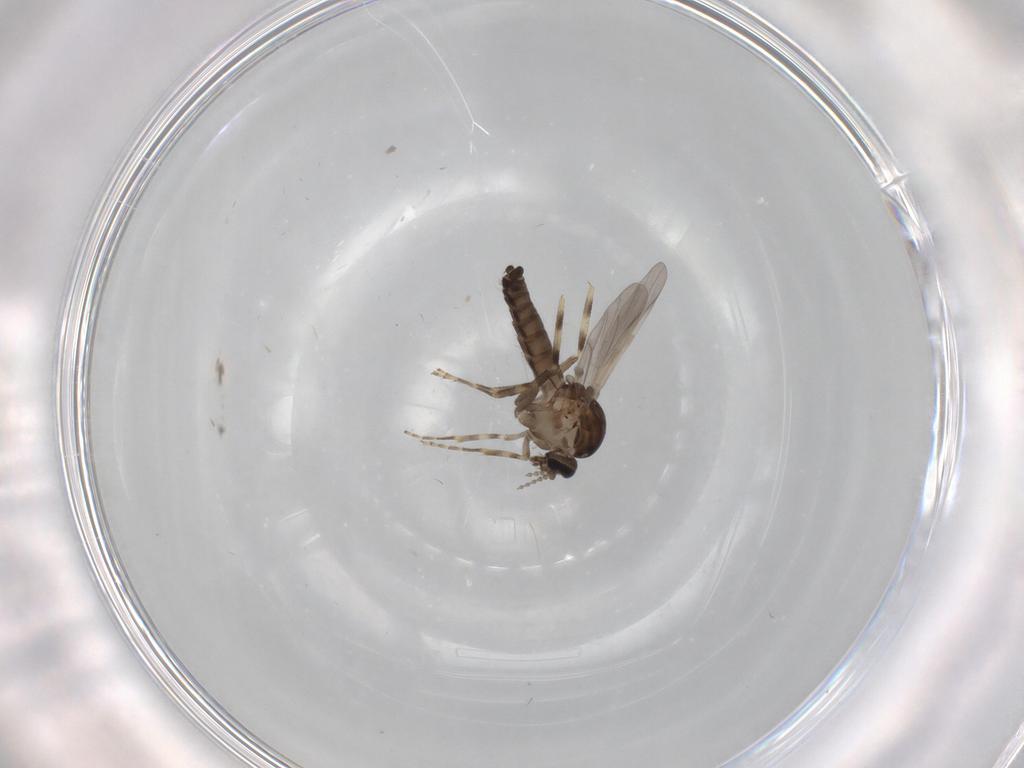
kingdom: Animalia
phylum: Arthropoda
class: Insecta
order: Diptera
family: Ceratopogonidae
